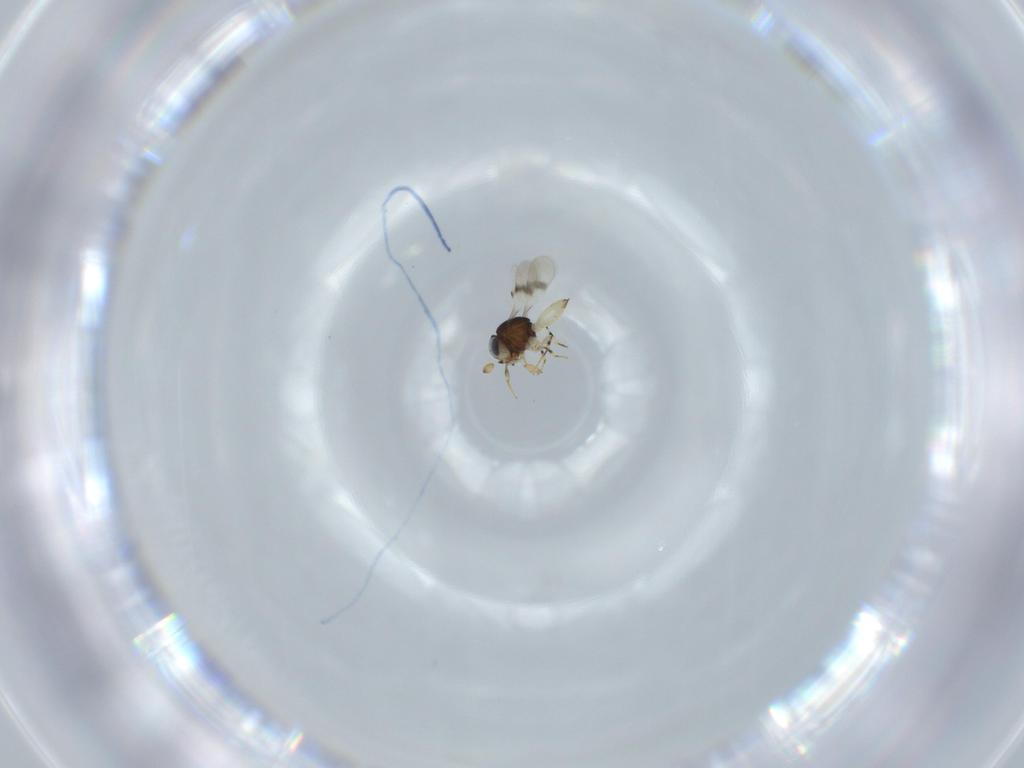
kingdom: Animalia
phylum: Arthropoda
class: Insecta
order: Hymenoptera
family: Scelionidae
